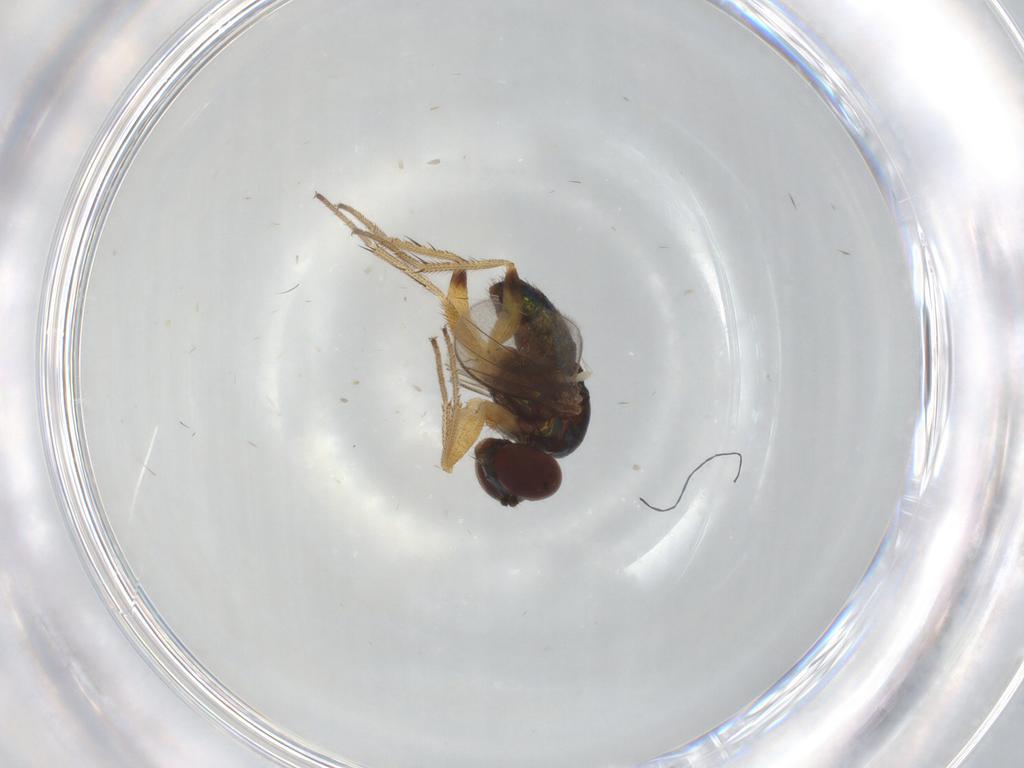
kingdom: Animalia
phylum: Arthropoda
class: Insecta
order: Diptera
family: Dolichopodidae
